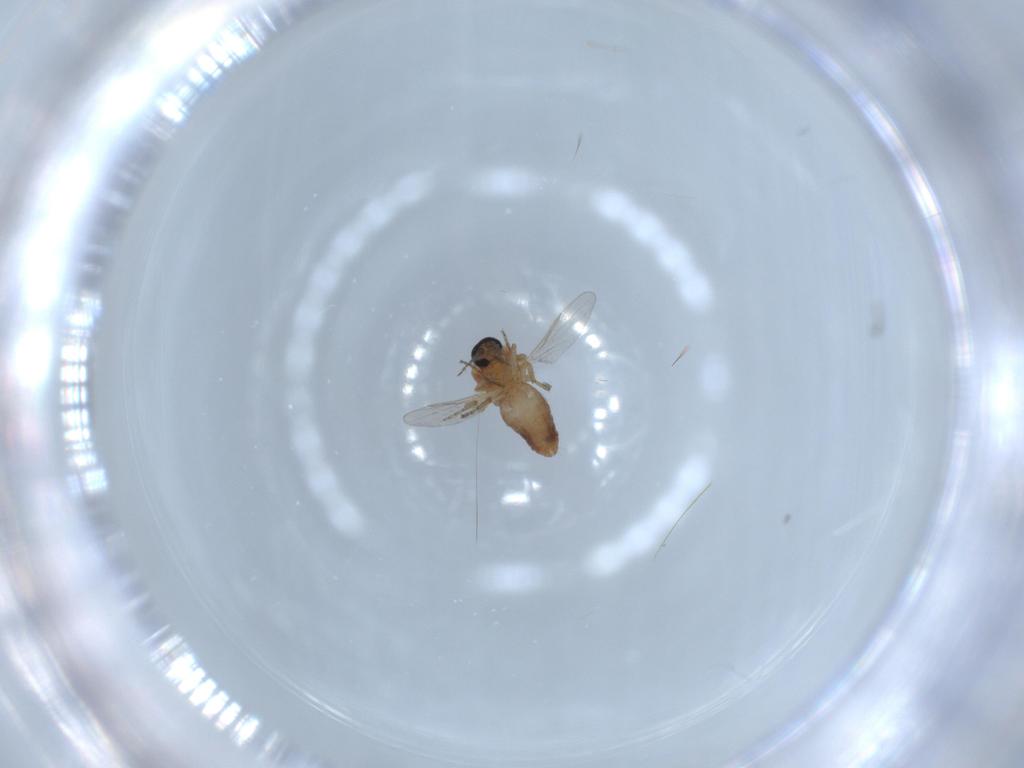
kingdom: Animalia
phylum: Arthropoda
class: Insecta
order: Diptera
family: Ceratopogonidae
